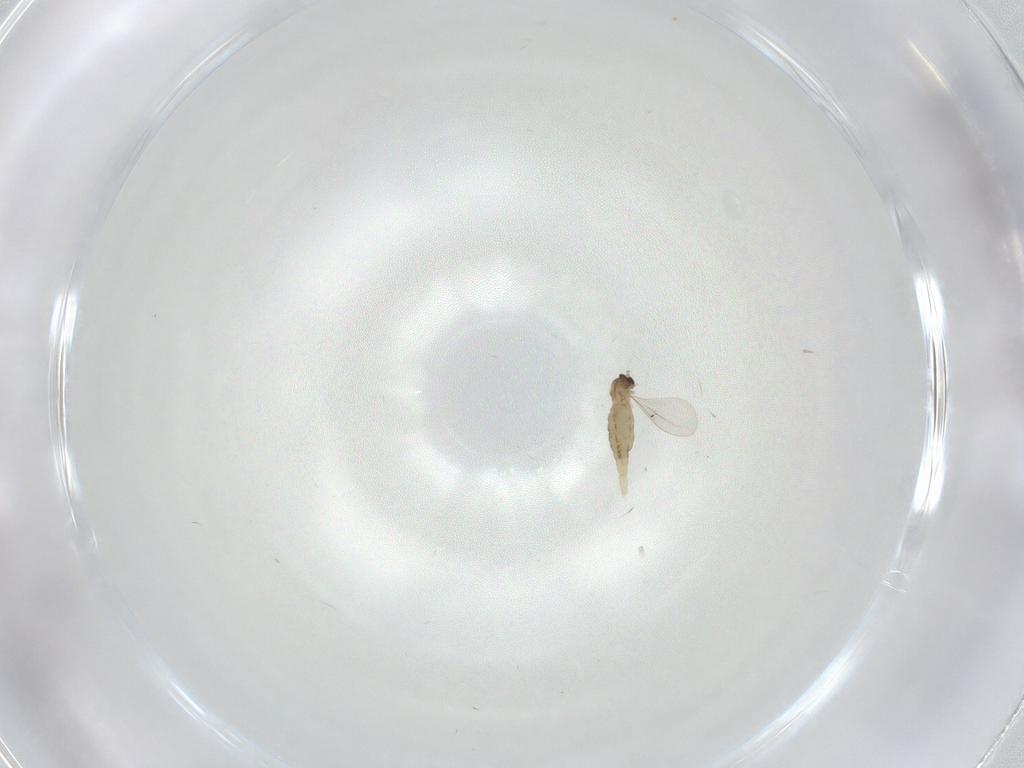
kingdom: Animalia
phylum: Arthropoda
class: Insecta
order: Diptera
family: Cecidomyiidae
